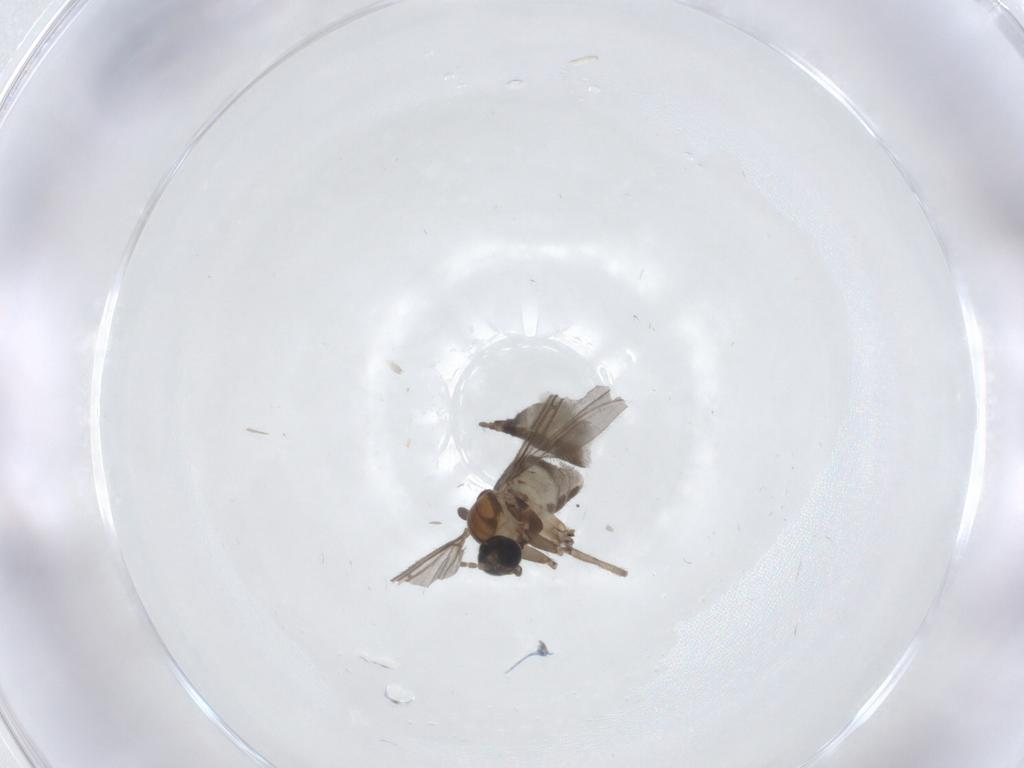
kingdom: Animalia
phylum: Arthropoda
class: Insecta
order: Diptera
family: Sciaridae
